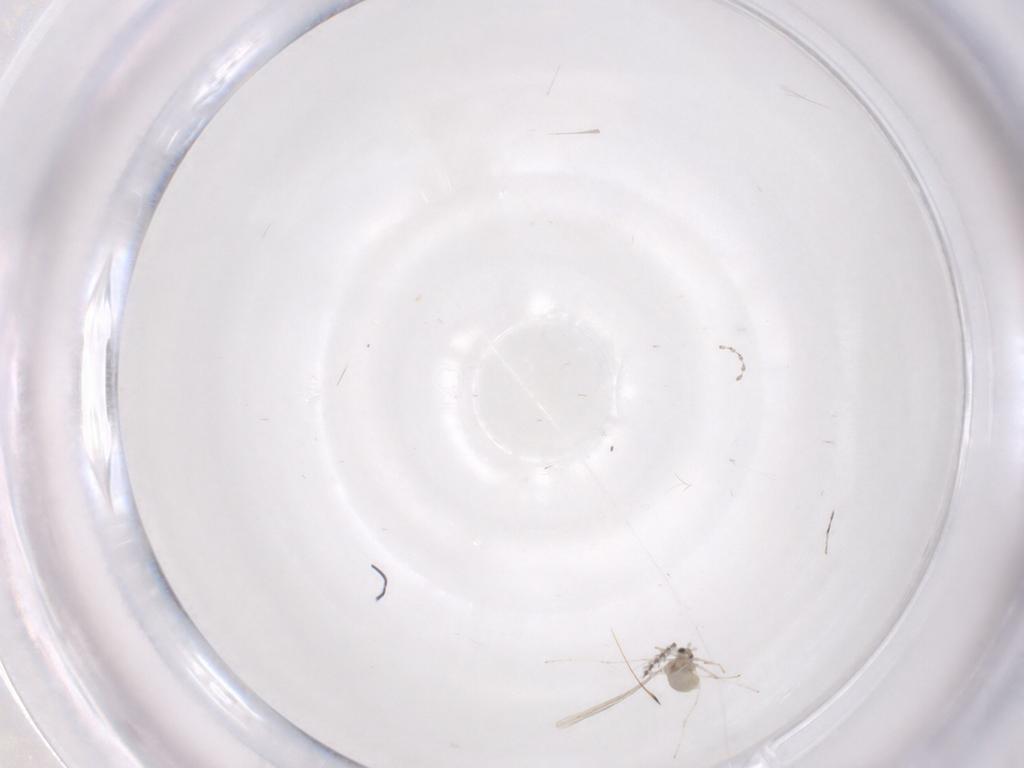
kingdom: Animalia
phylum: Arthropoda
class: Insecta
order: Diptera
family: Cecidomyiidae
